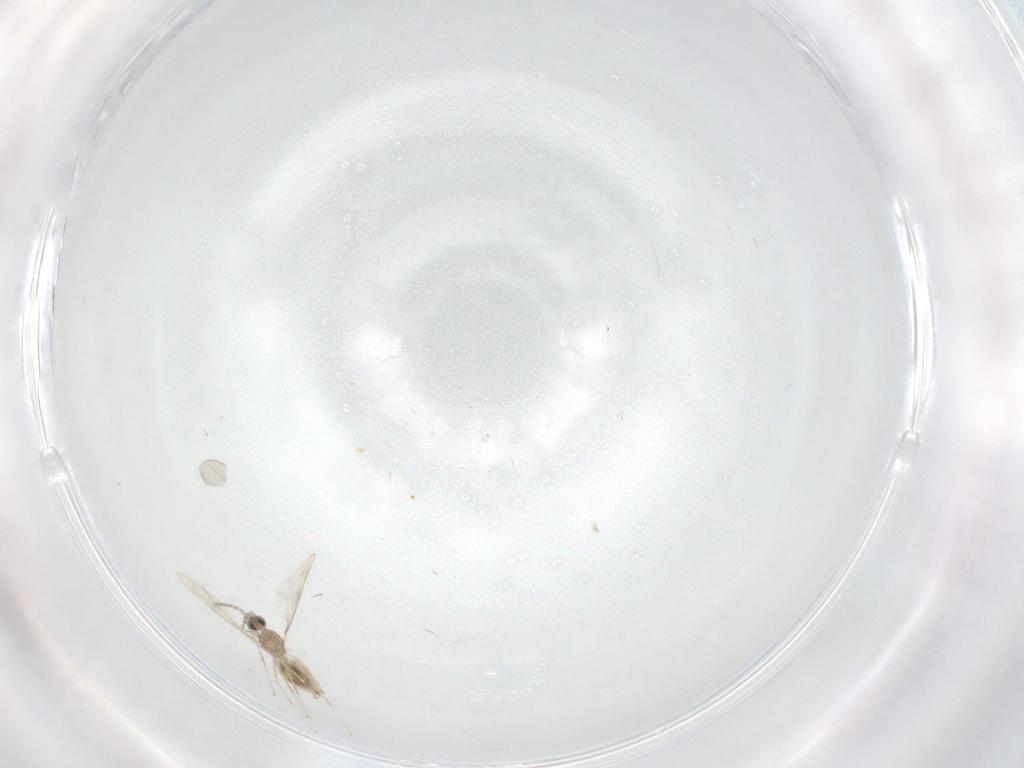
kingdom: Animalia
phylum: Arthropoda
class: Insecta
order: Diptera
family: Cecidomyiidae
